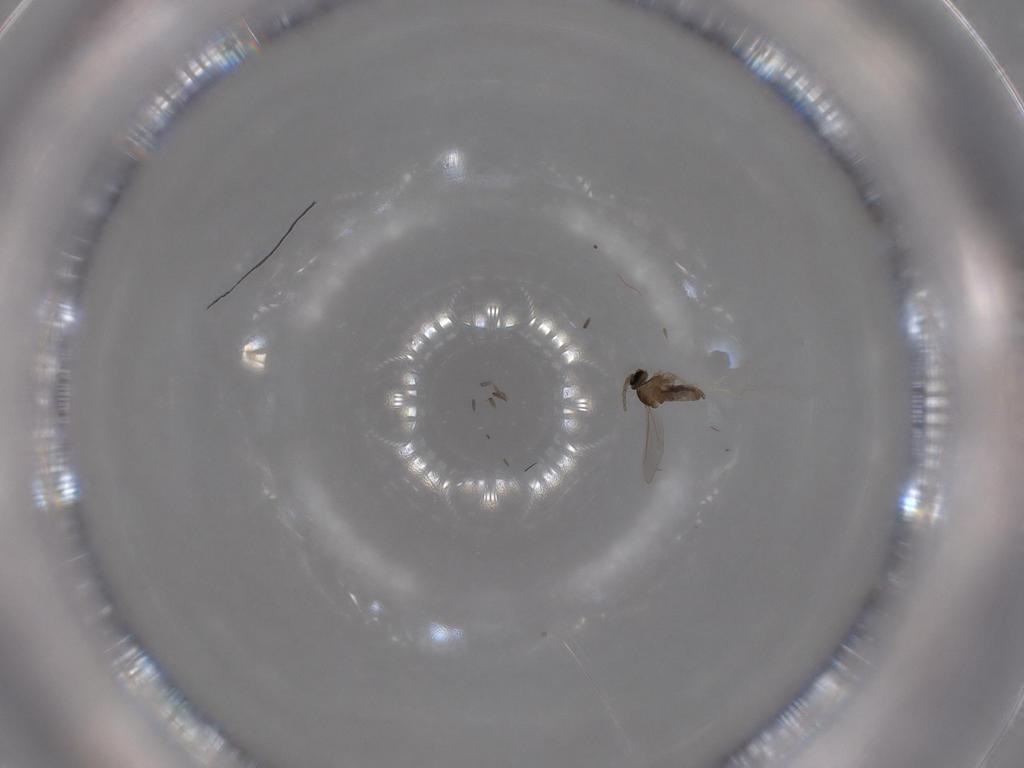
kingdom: Animalia
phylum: Arthropoda
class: Insecta
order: Diptera
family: Cecidomyiidae
